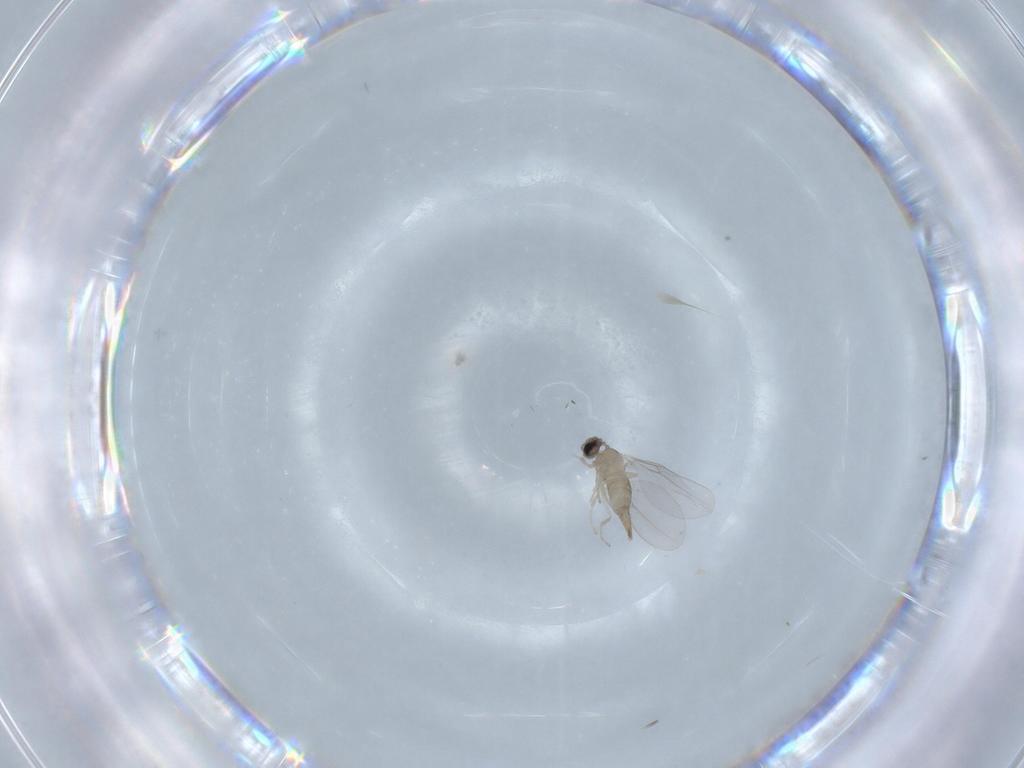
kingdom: Animalia
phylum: Arthropoda
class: Insecta
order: Diptera
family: Cecidomyiidae
